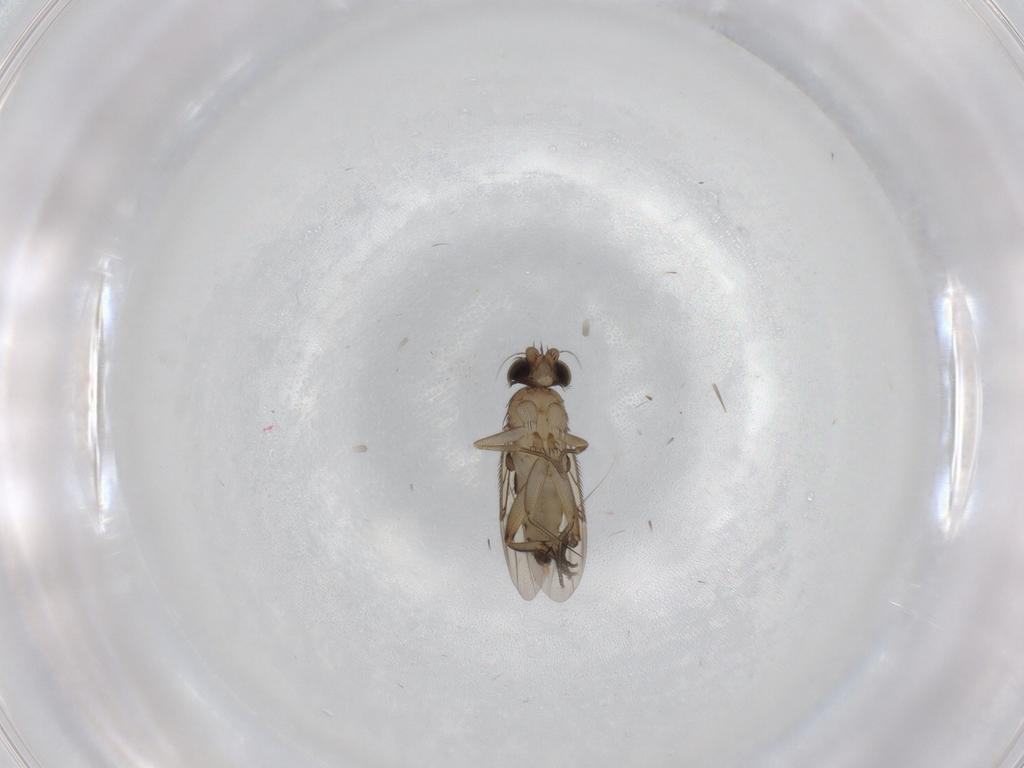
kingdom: Animalia
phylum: Arthropoda
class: Insecta
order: Diptera
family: Phoridae
